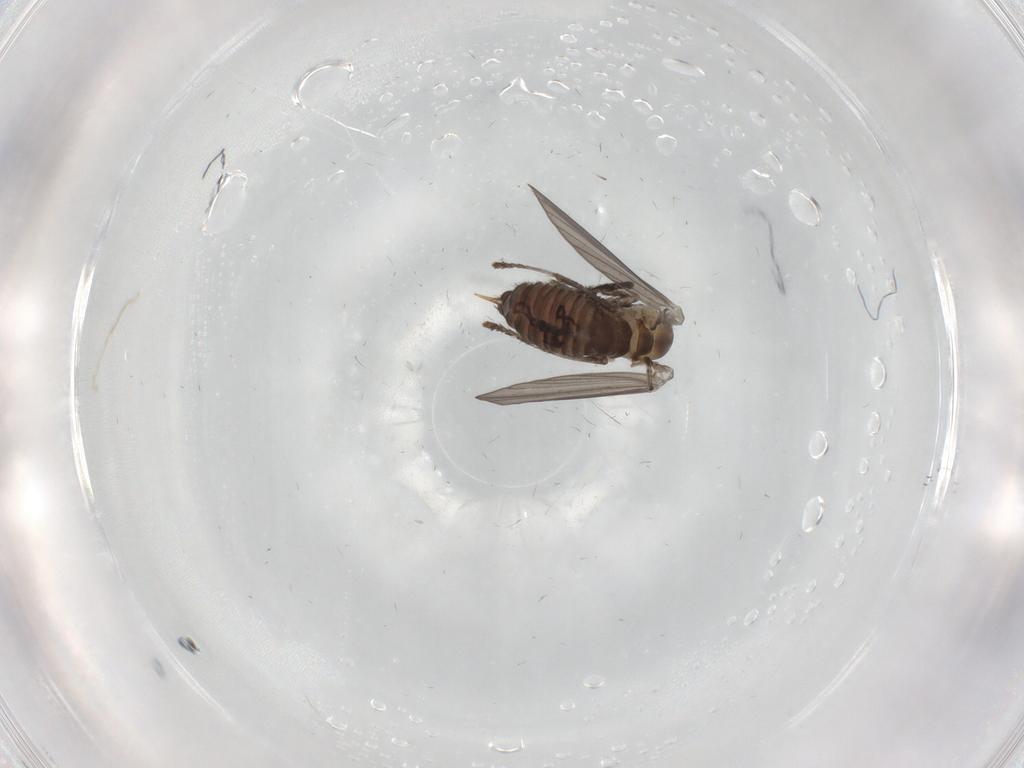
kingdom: Animalia
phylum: Arthropoda
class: Insecta
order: Diptera
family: Psychodidae
